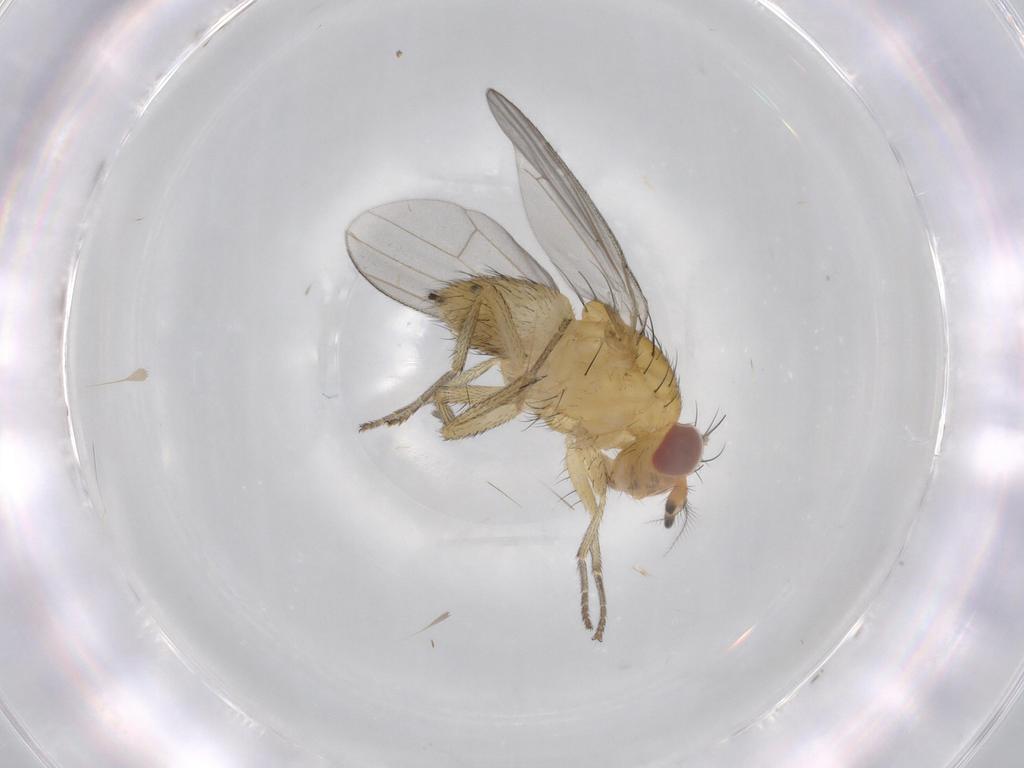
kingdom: Animalia
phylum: Arthropoda
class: Insecta
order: Diptera
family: Lauxaniidae
